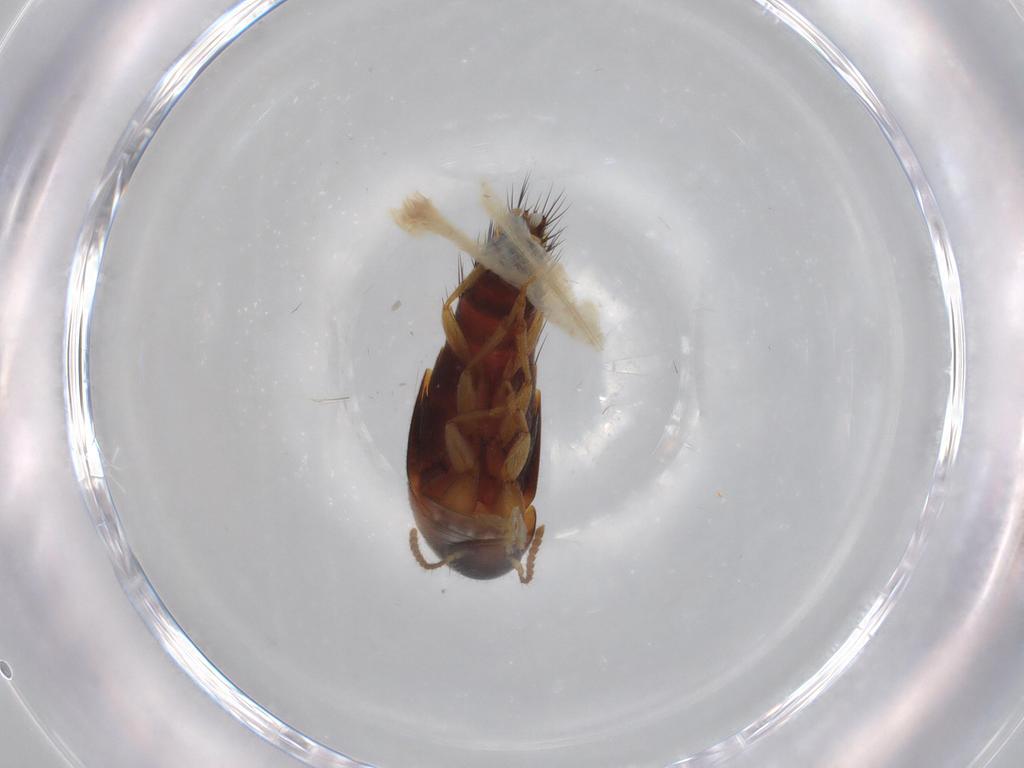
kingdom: Animalia
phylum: Arthropoda
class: Insecta
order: Coleoptera
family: Staphylinidae
